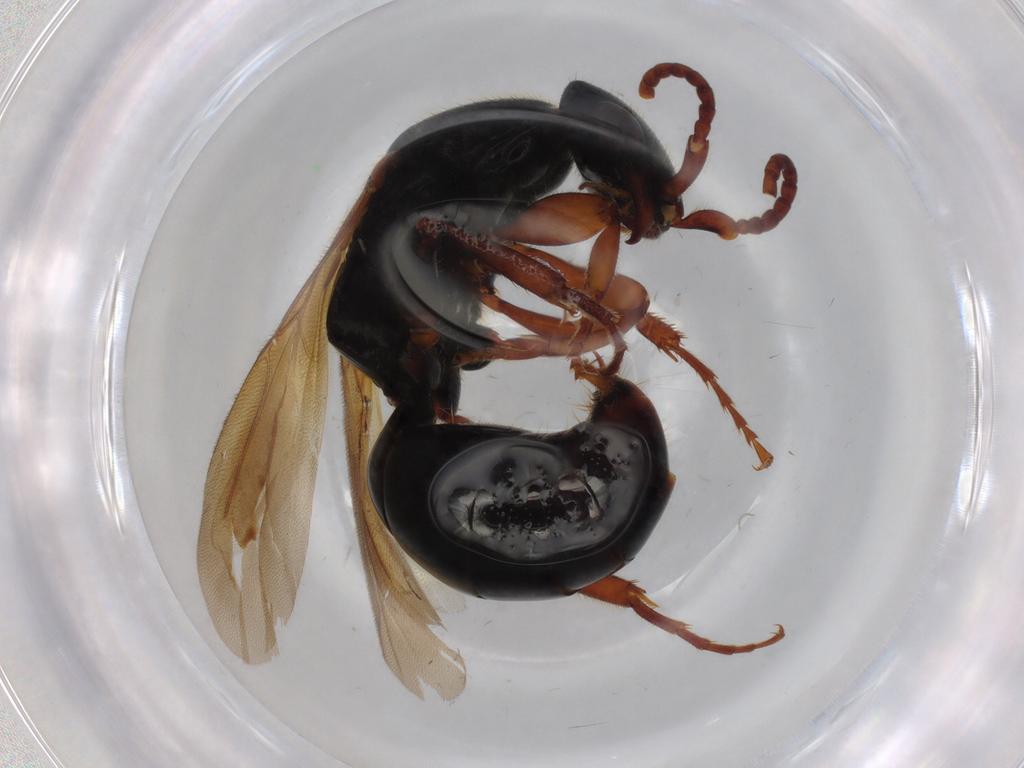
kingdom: Animalia
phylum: Arthropoda
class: Insecta
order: Hymenoptera
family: Bethylidae
